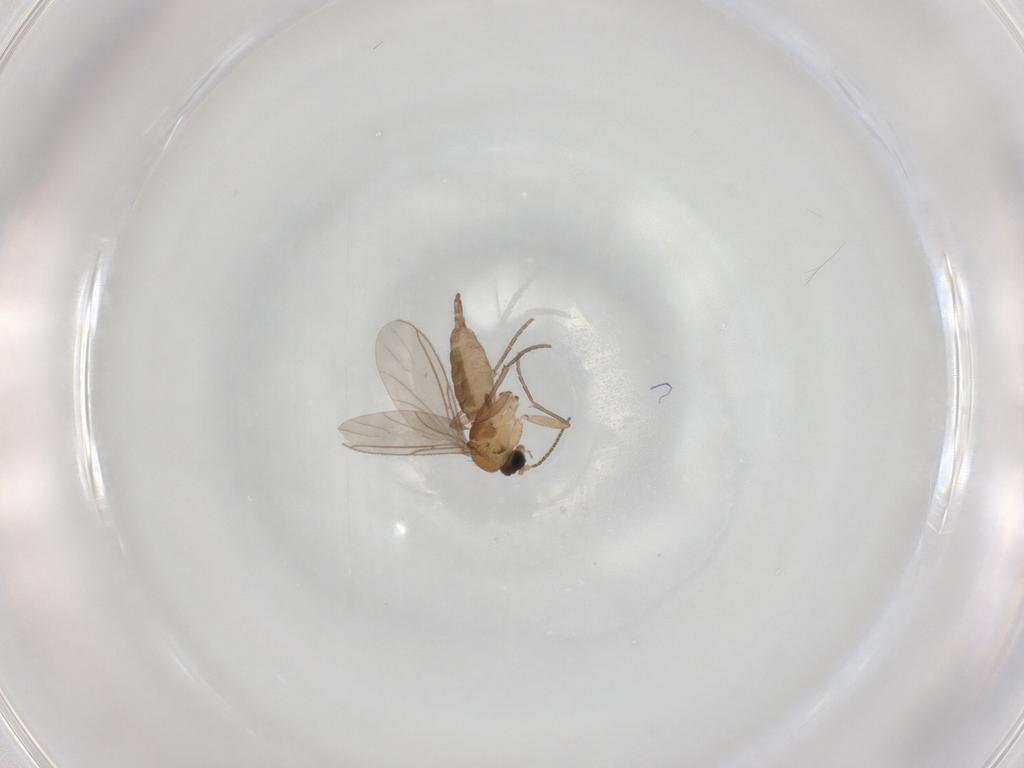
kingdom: Animalia
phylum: Arthropoda
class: Insecta
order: Diptera
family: Sciaridae
